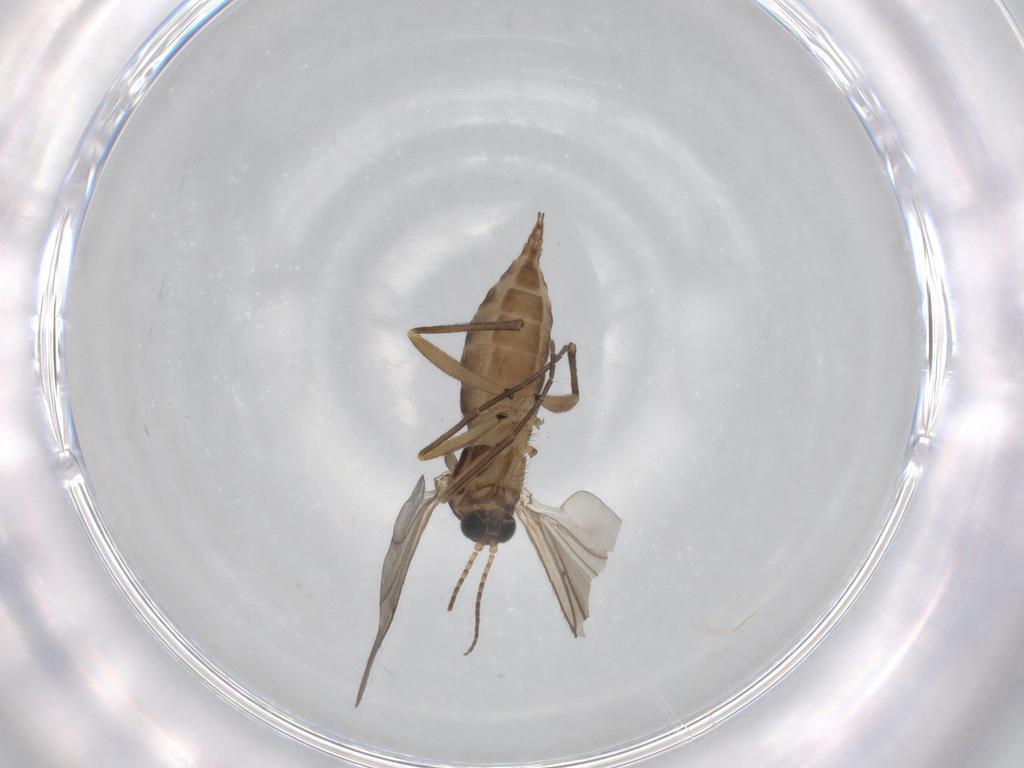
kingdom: Animalia
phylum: Arthropoda
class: Insecta
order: Diptera
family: Sciaridae
